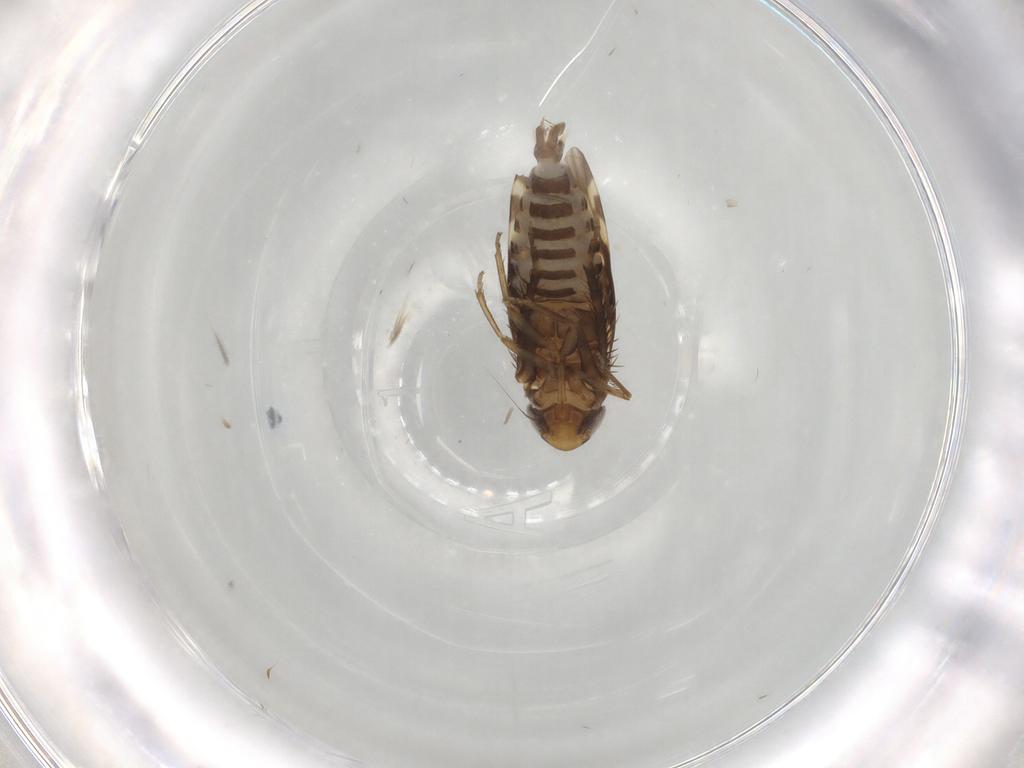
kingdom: Animalia
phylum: Arthropoda
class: Insecta
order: Hemiptera
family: Cicadellidae
